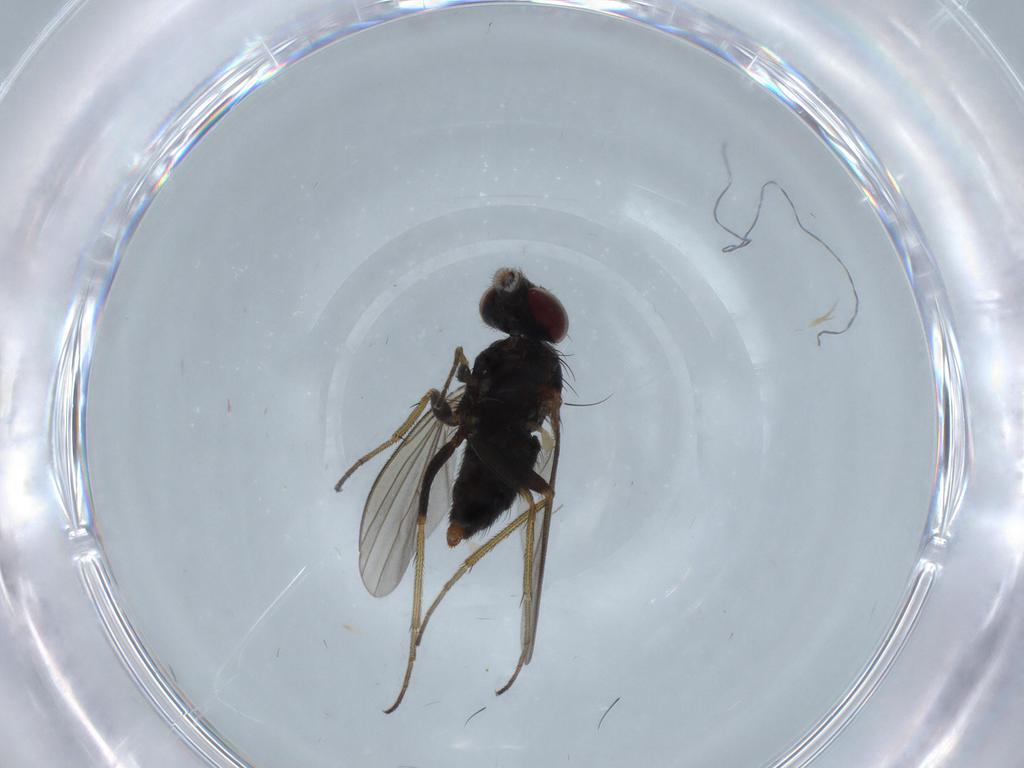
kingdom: Animalia
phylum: Arthropoda
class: Insecta
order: Diptera
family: Dolichopodidae
